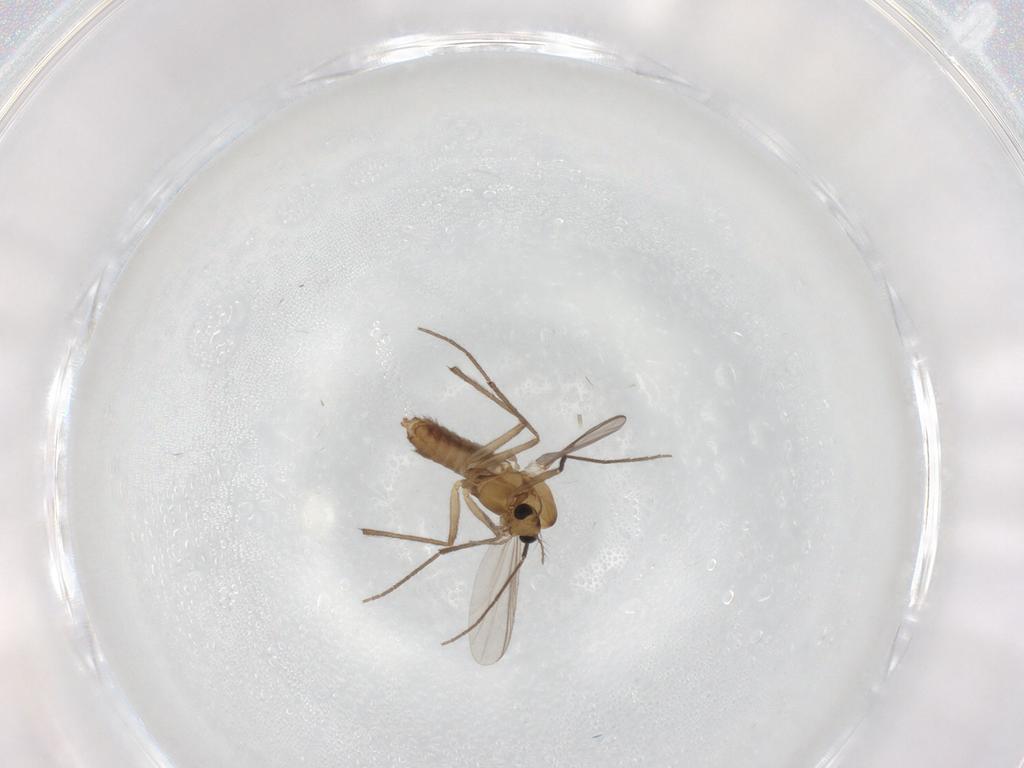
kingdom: Animalia
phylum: Arthropoda
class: Insecta
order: Diptera
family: Chironomidae
